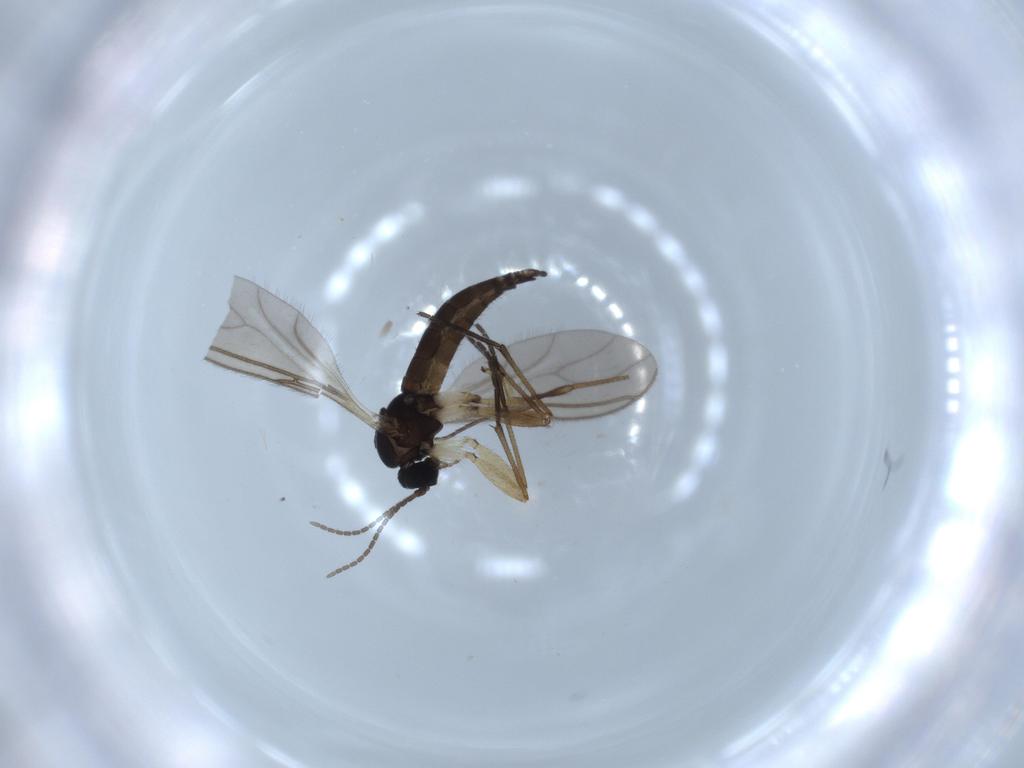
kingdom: Animalia
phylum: Arthropoda
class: Insecta
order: Diptera
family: Sciaridae
